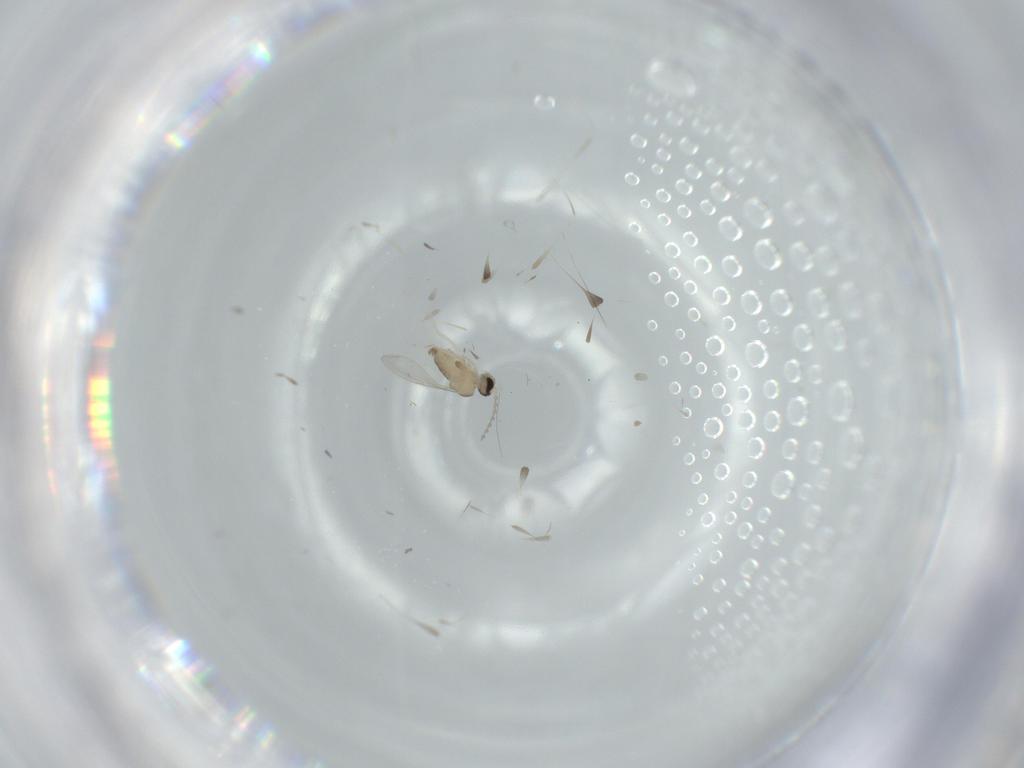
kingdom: Animalia
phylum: Arthropoda
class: Insecta
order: Diptera
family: Cecidomyiidae
